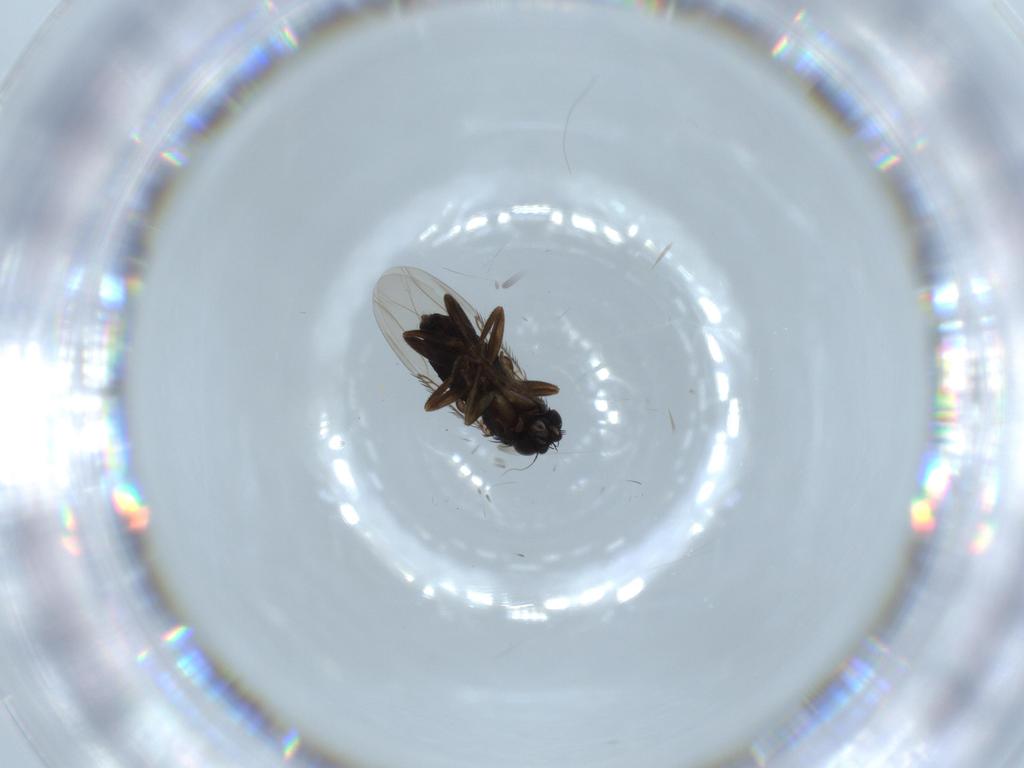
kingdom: Animalia
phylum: Arthropoda
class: Insecta
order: Diptera
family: Phoridae
